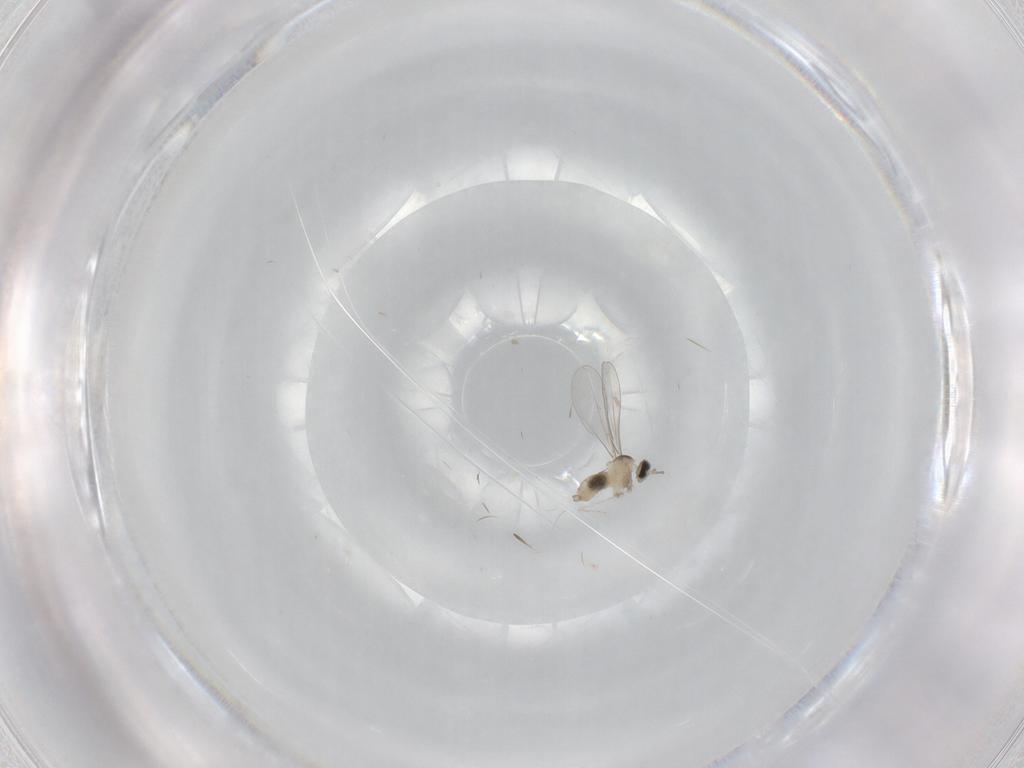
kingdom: Animalia
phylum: Arthropoda
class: Insecta
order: Diptera
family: Cecidomyiidae
